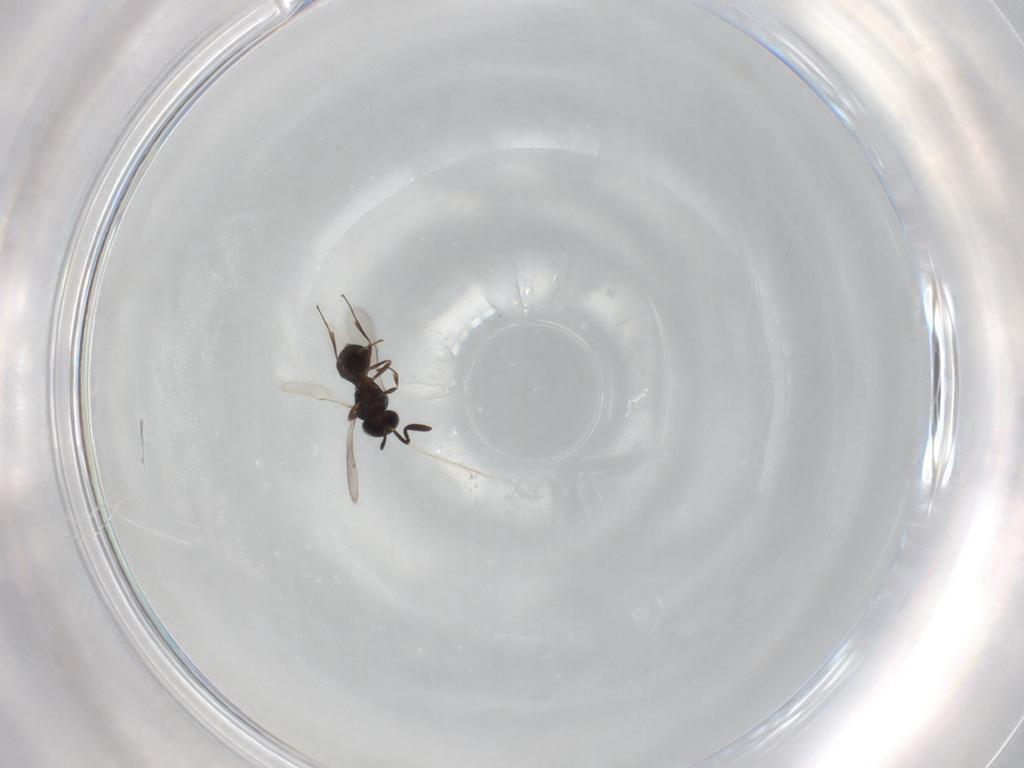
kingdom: Animalia
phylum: Arthropoda
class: Insecta
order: Hymenoptera
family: Scelionidae
